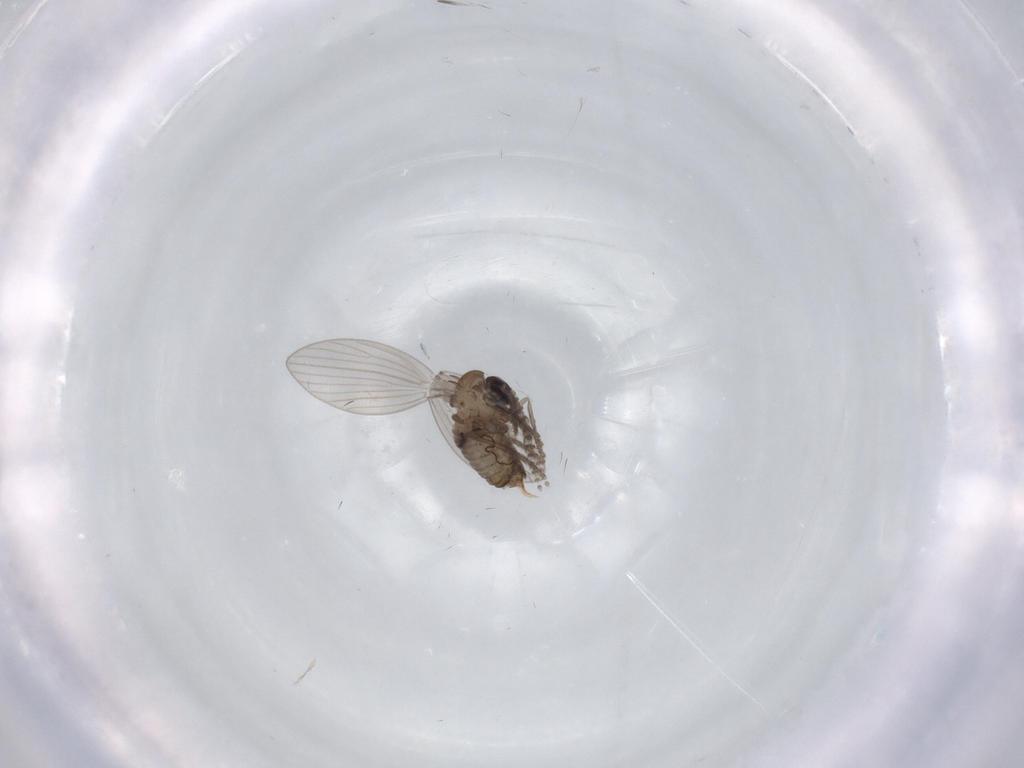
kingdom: Animalia
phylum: Arthropoda
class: Insecta
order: Diptera
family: Psychodidae
